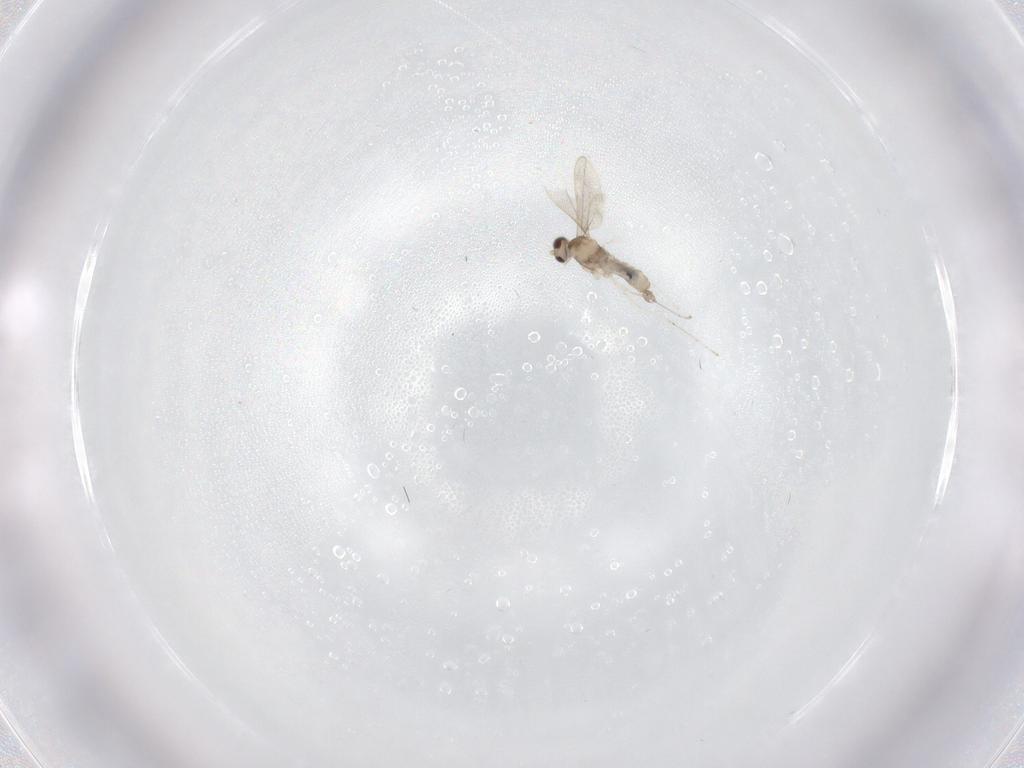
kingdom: Animalia
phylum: Arthropoda
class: Insecta
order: Diptera
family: Cecidomyiidae
